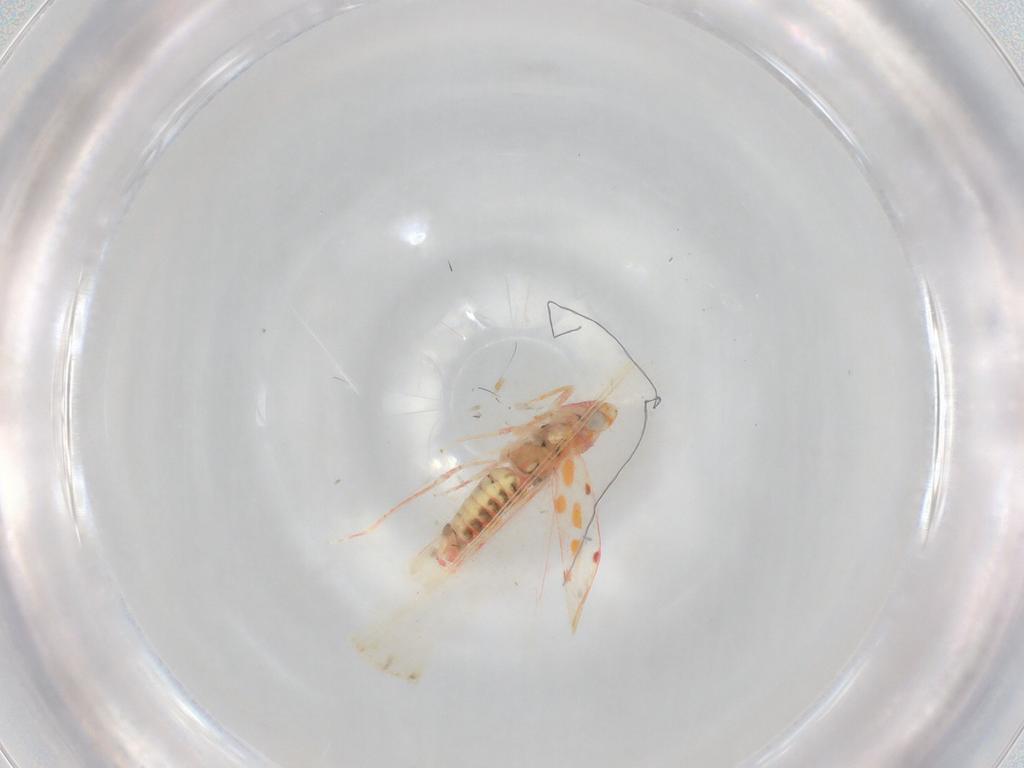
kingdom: Animalia
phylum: Arthropoda
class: Insecta
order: Hemiptera
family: Cicadellidae
